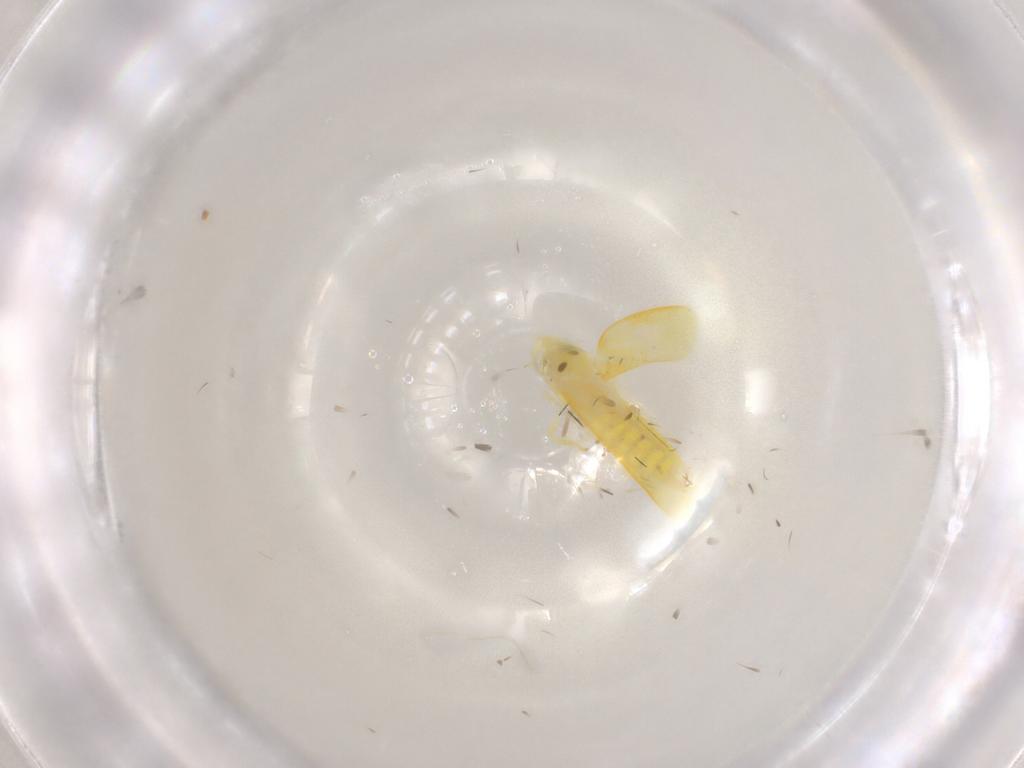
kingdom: Animalia
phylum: Arthropoda
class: Insecta
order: Hemiptera
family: Cicadellidae
